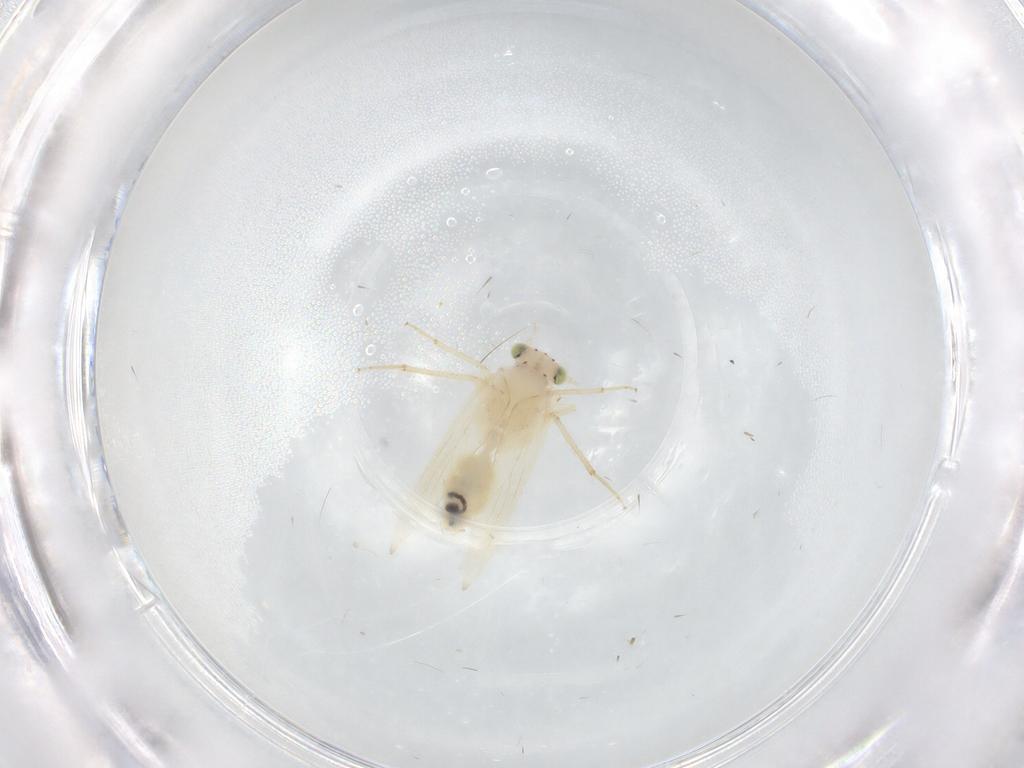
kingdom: Animalia
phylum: Arthropoda
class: Insecta
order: Psocodea
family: Lepidopsocidae
